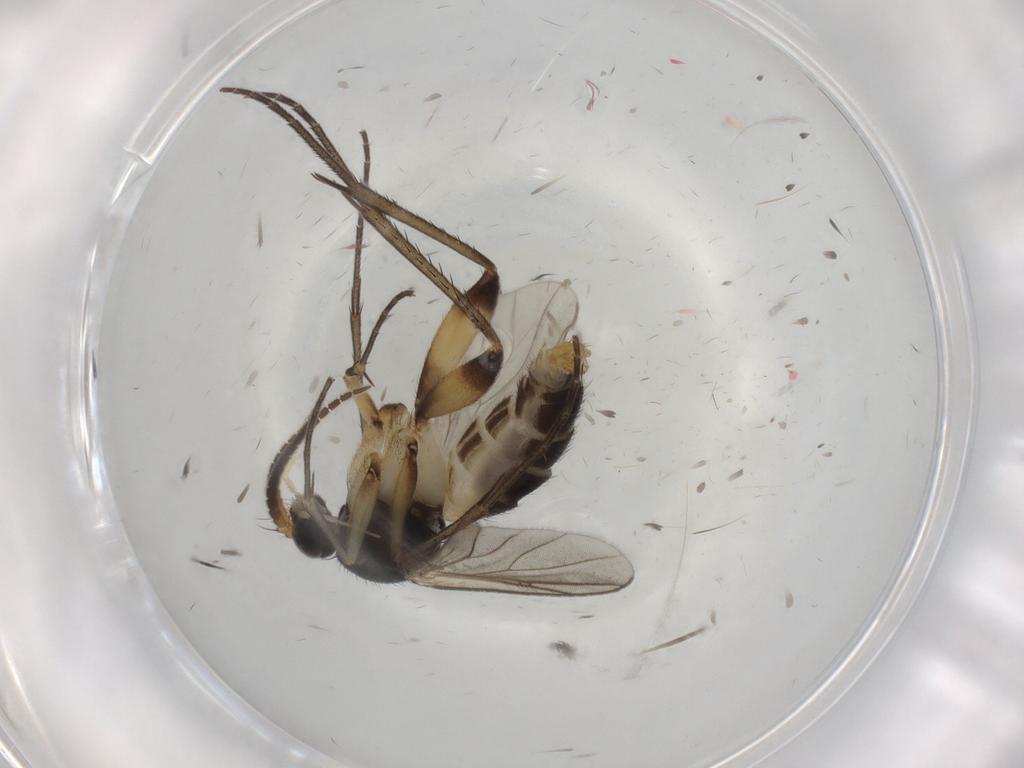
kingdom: Animalia
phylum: Arthropoda
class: Insecta
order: Diptera
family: Mycetophilidae
